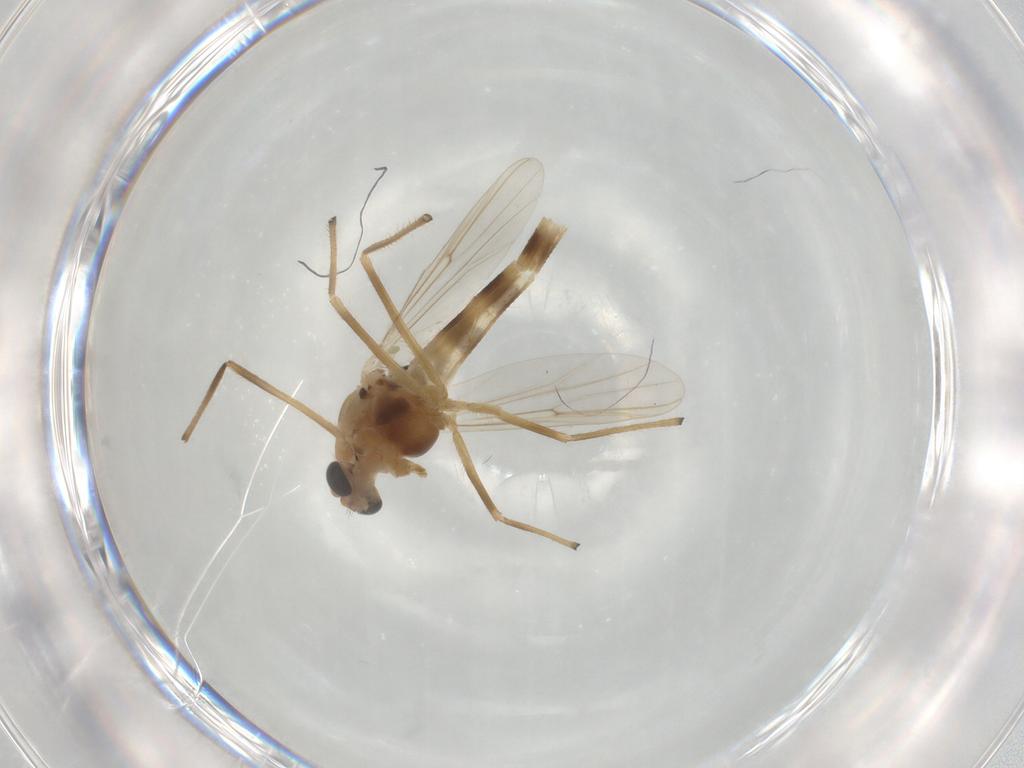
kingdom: Animalia
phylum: Arthropoda
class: Insecta
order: Diptera
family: Chironomidae
